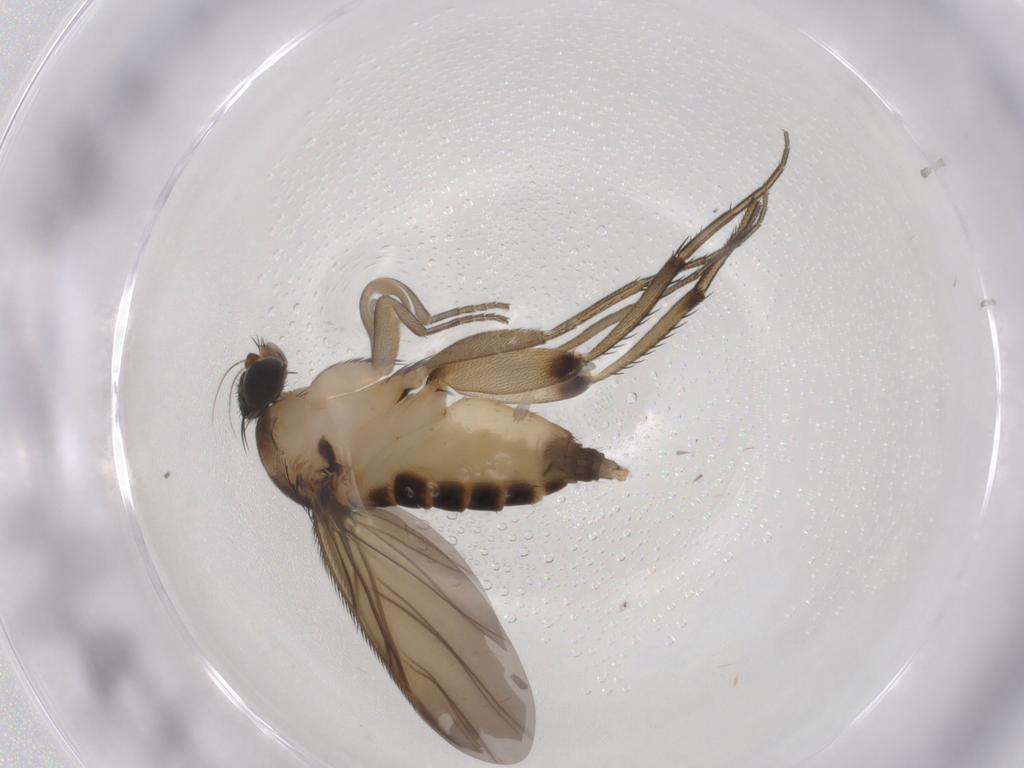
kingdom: Animalia
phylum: Arthropoda
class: Insecta
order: Diptera
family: Phoridae
